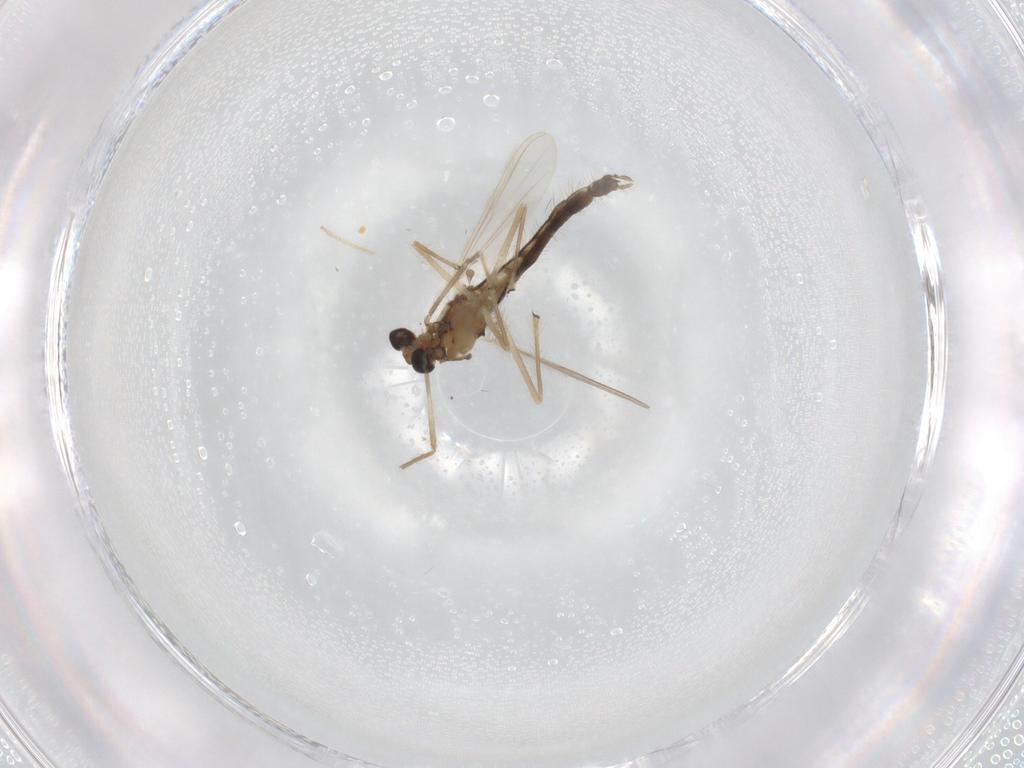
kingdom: Animalia
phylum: Arthropoda
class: Insecta
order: Diptera
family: Chironomidae
